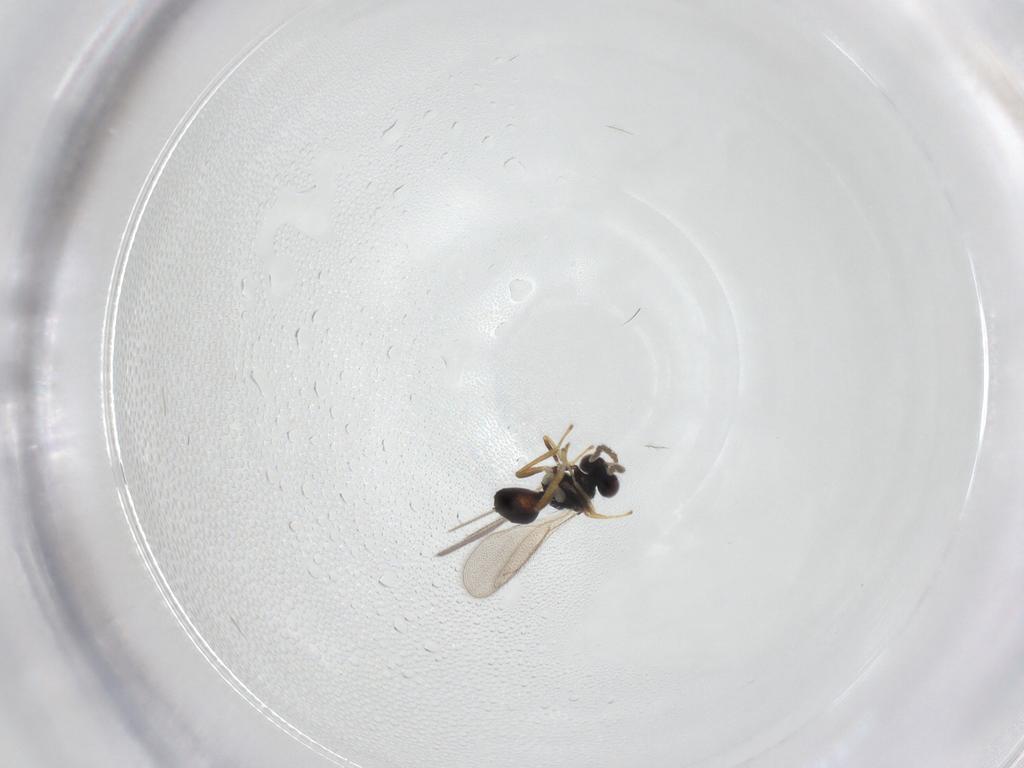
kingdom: Animalia
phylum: Arthropoda
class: Insecta
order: Hymenoptera
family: Eulophidae
